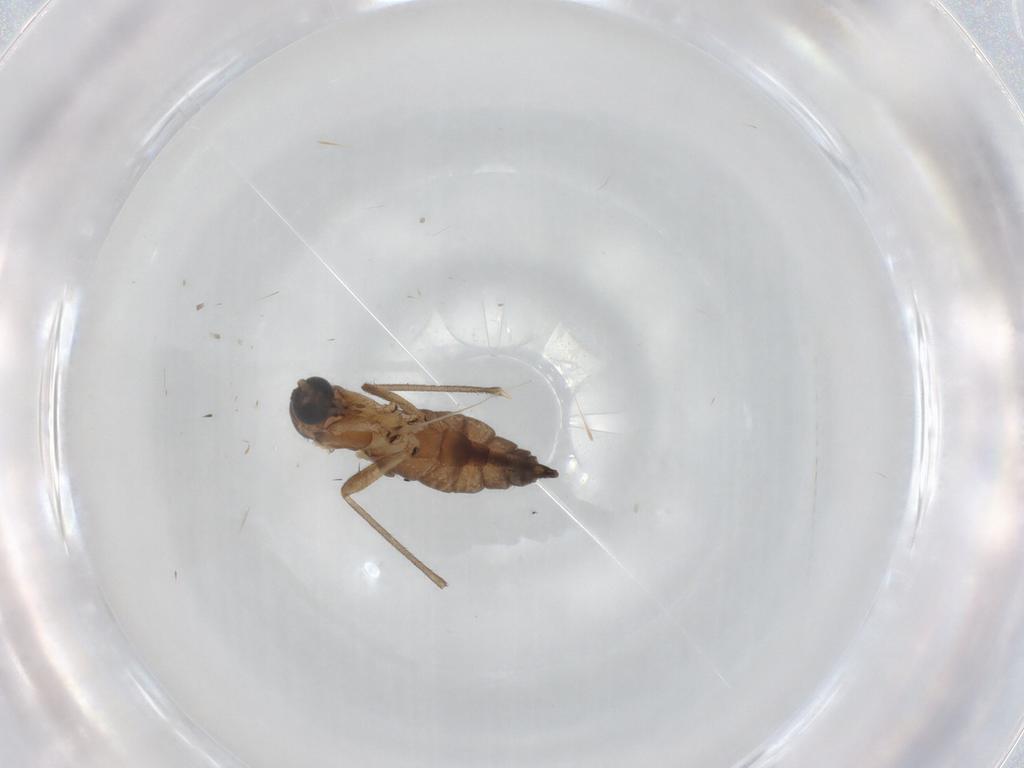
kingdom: Animalia
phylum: Arthropoda
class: Insecta
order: Diptera
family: Sciaridae
